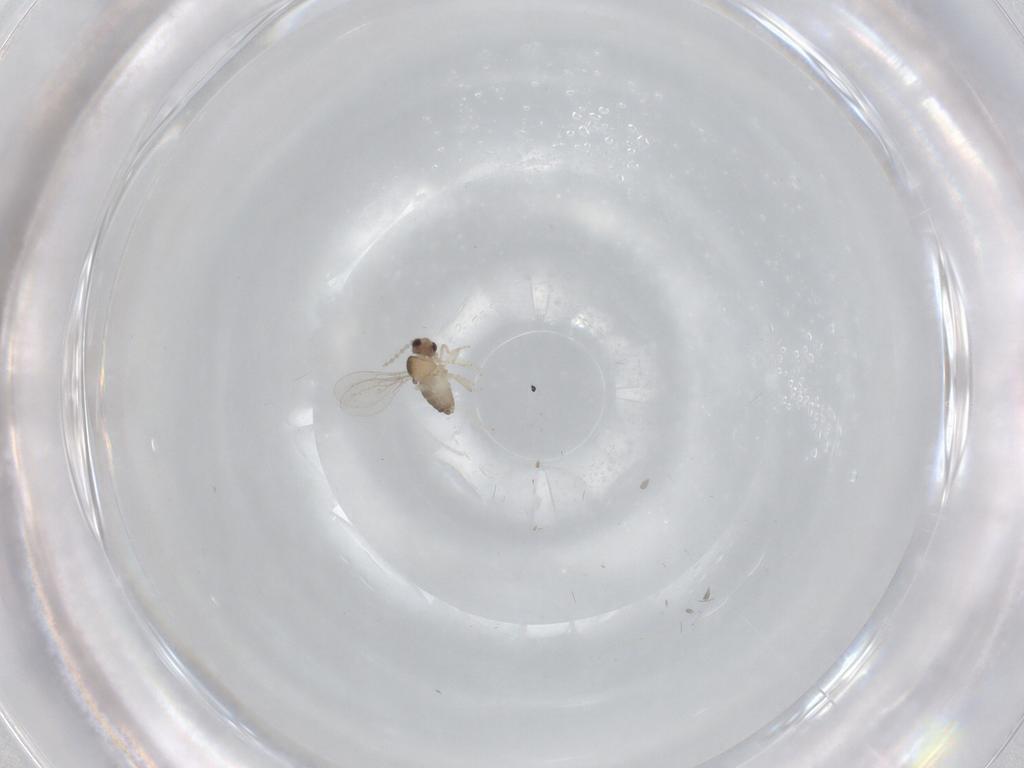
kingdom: Animalia
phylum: Arthropoda
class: Insecta
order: Diptera
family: Cecidomyiidae
